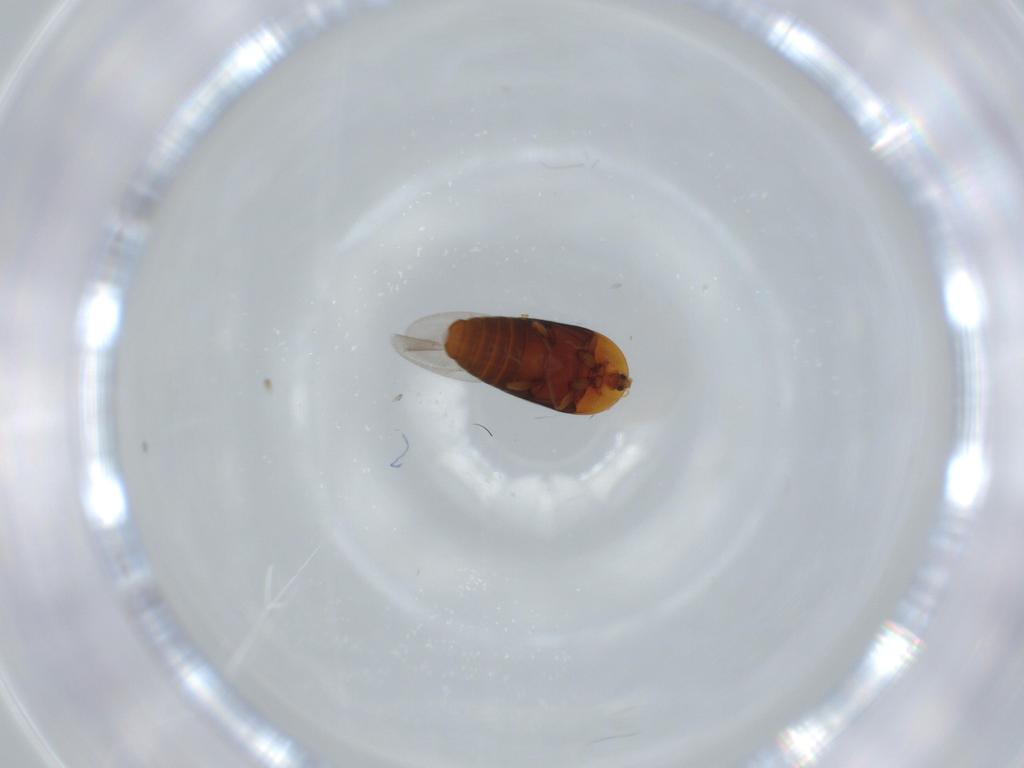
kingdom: Animalia
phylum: Arthropoda
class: Insecta
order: Coleoptera
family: Corylophidae
